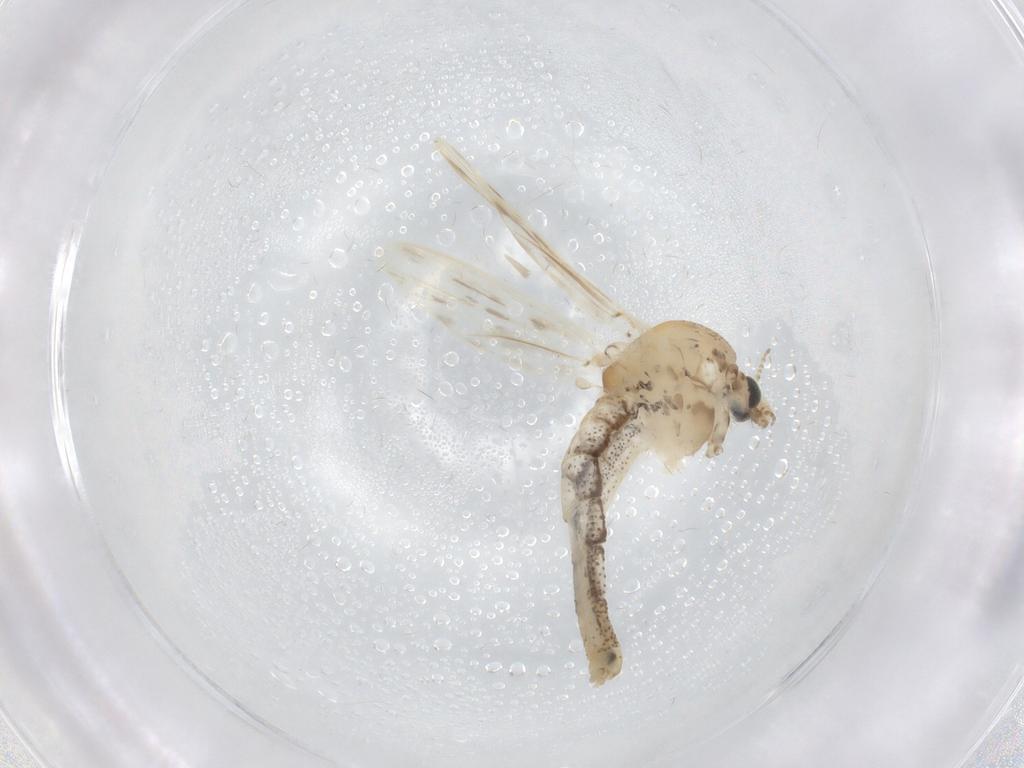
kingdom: Animalia
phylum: Arthropoda
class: Insecta
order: Diptera
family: Chaoboridae
